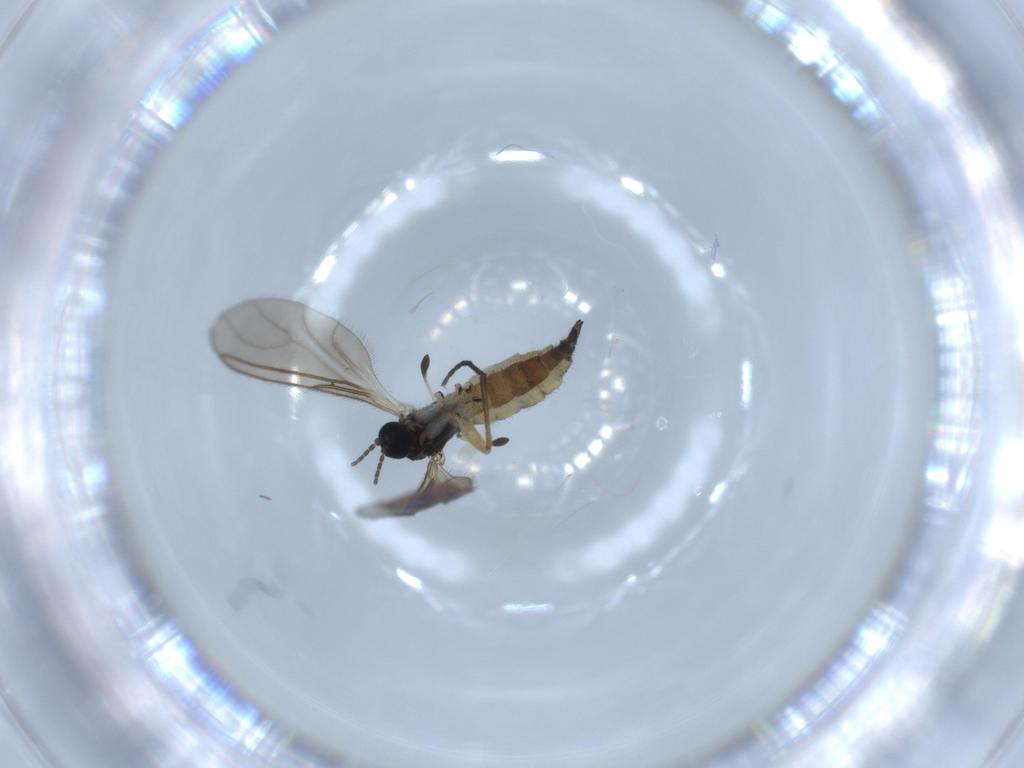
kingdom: Animalia
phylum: Arthropoda
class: Insecta
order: Diptera
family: Sciaridae
